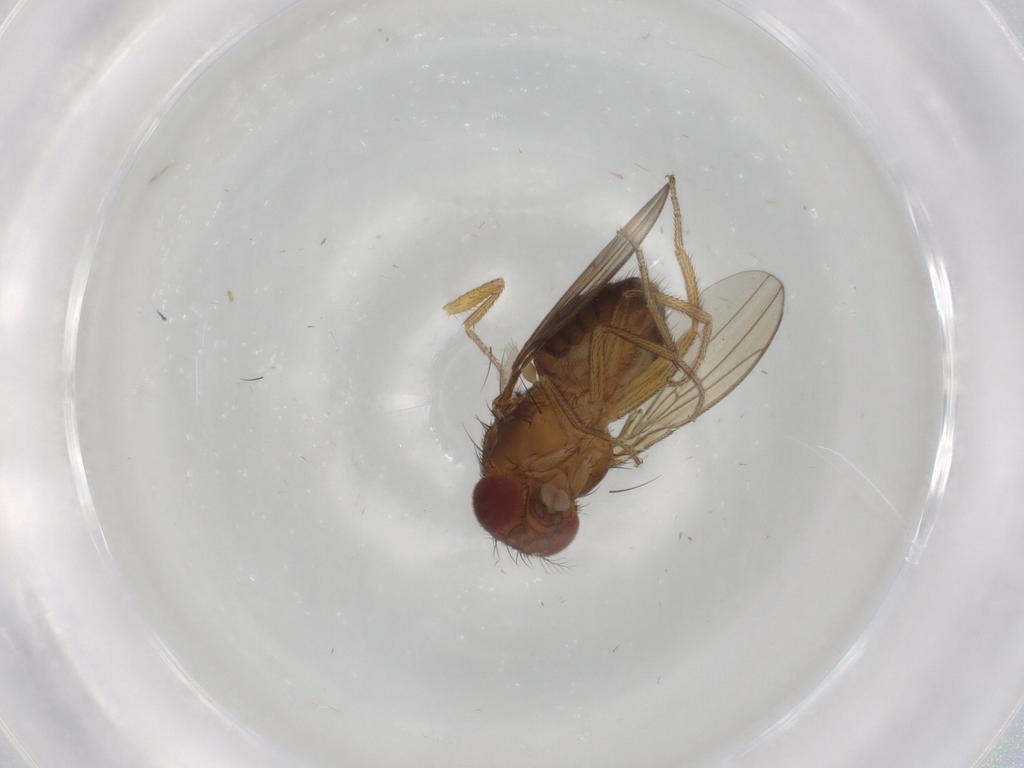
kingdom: Animalia
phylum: Arthropoda
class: Insecta
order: Diptera
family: Drosophilidae
